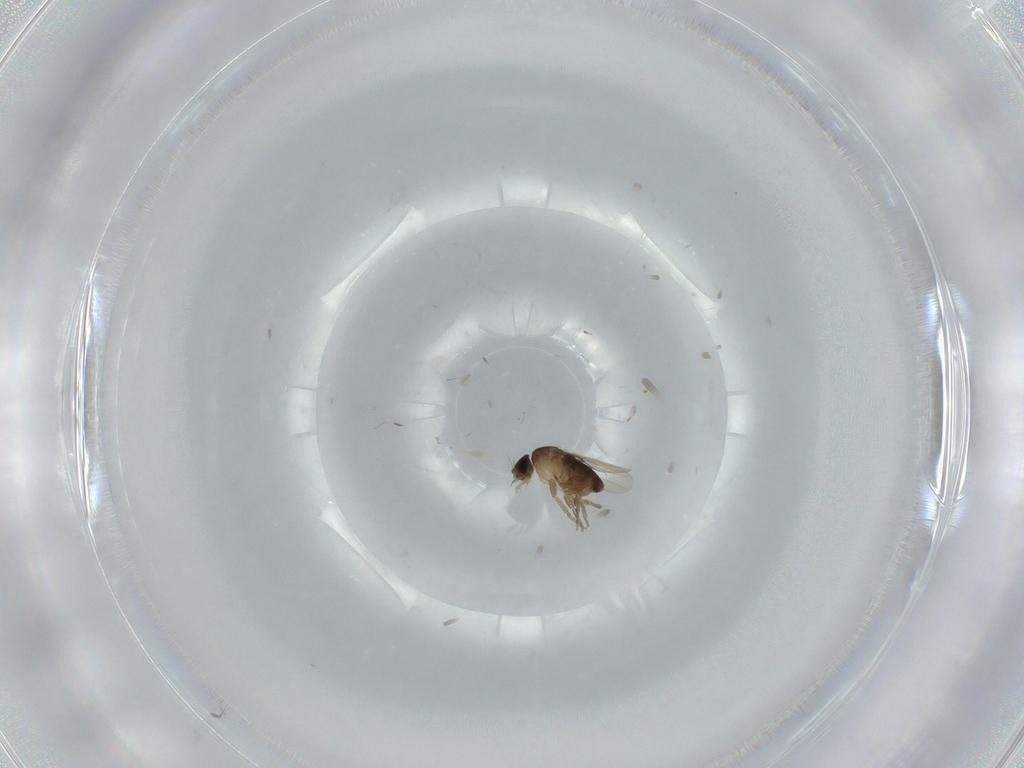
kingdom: Animalia
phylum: Arthropoda
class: Insecta
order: Diptera
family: Phoridae
